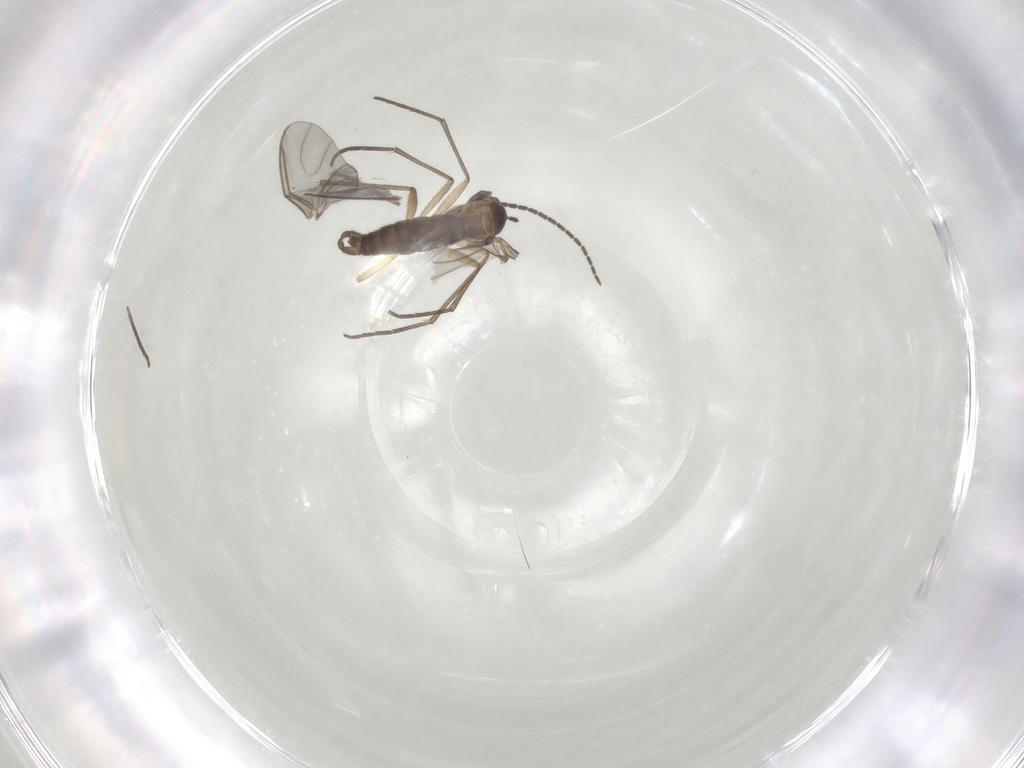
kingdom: Animalia
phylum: Arthropoda
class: Insecta
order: Diptera
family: Sciaridae
